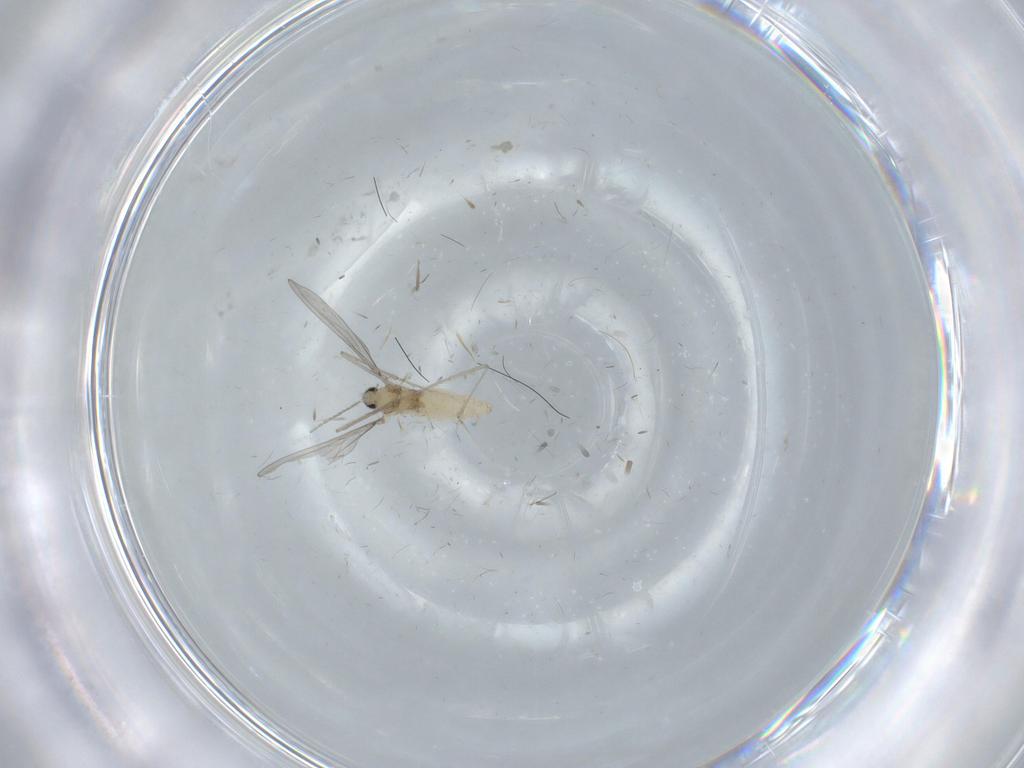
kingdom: Animalia
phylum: Arthropoda
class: Insecta
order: Diptera
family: Cecidomyiidae
